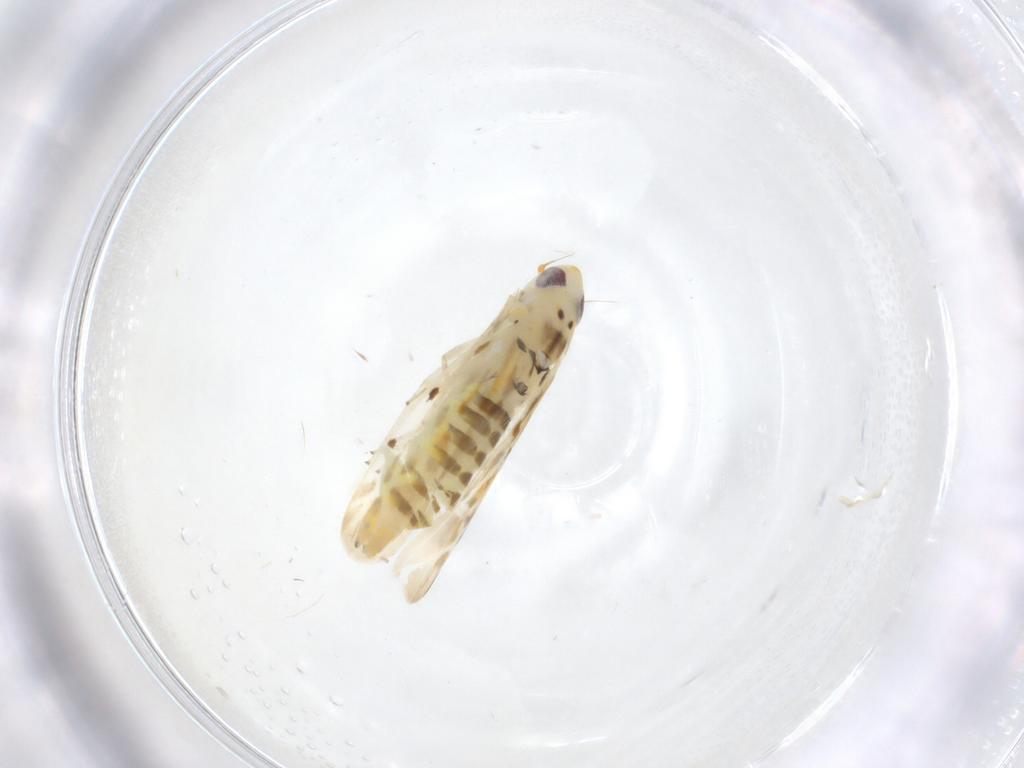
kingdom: Animalia
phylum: Arthropoda
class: Insecta
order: Hemiptera
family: Cicadellidae
